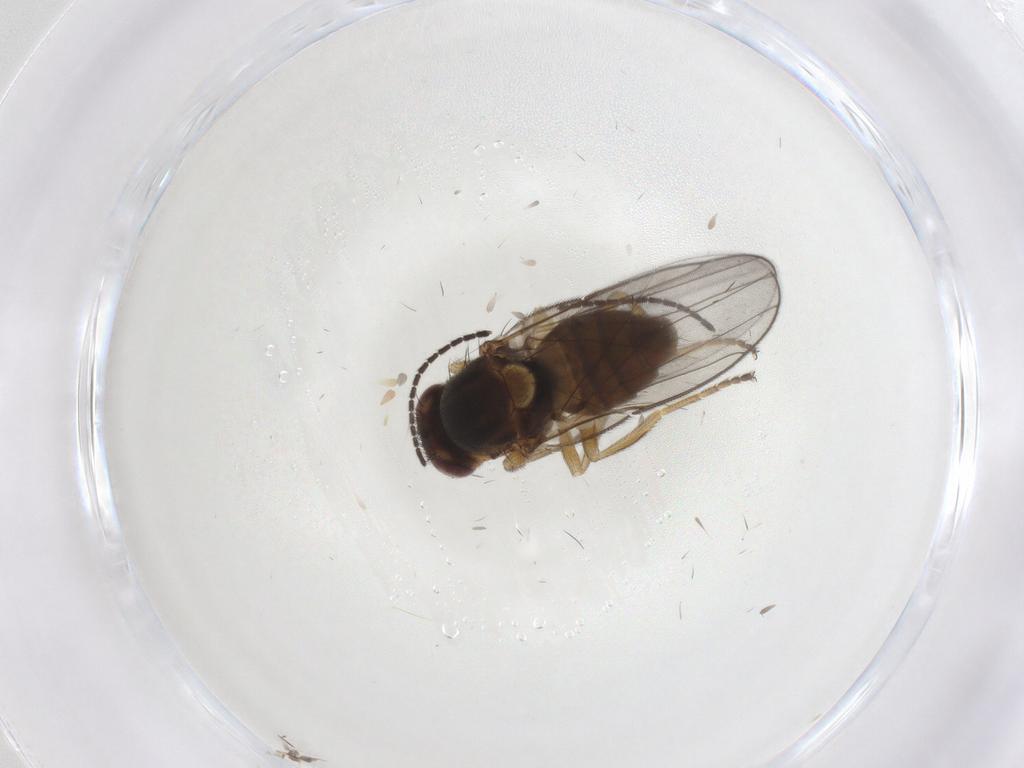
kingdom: Animalia
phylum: Arthropoda
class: Insecta
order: Diptera
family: Chloropidae
